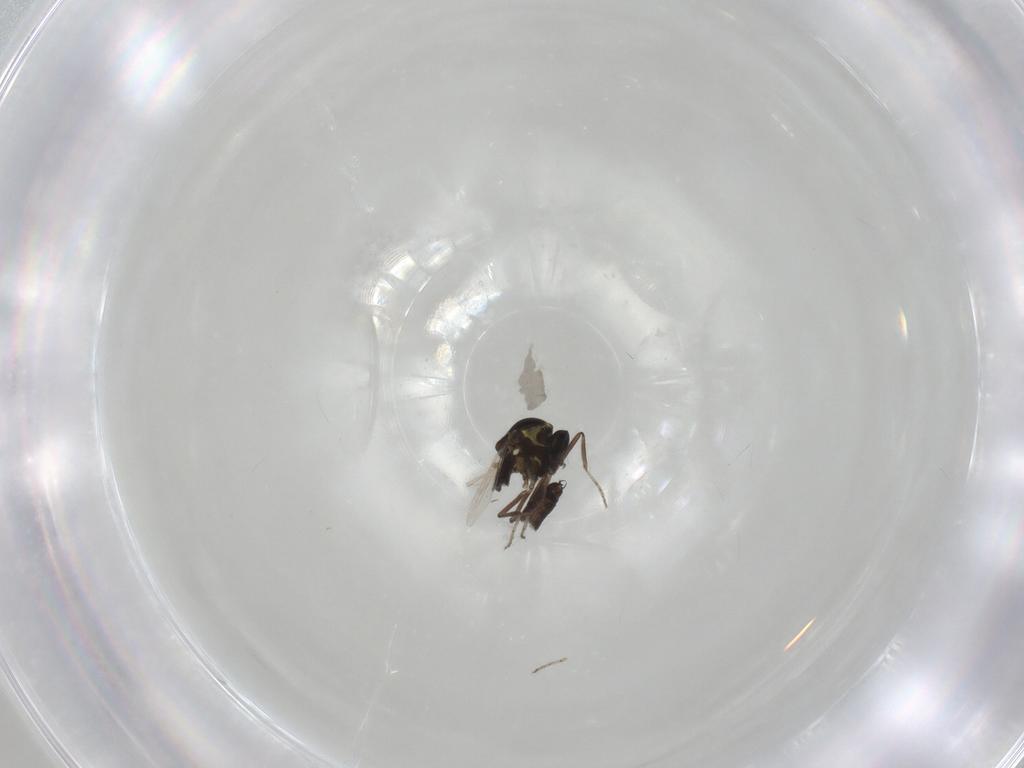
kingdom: Animalia
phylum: Arthropoda
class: Insecta
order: Diptera
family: Ceratopogonidae
